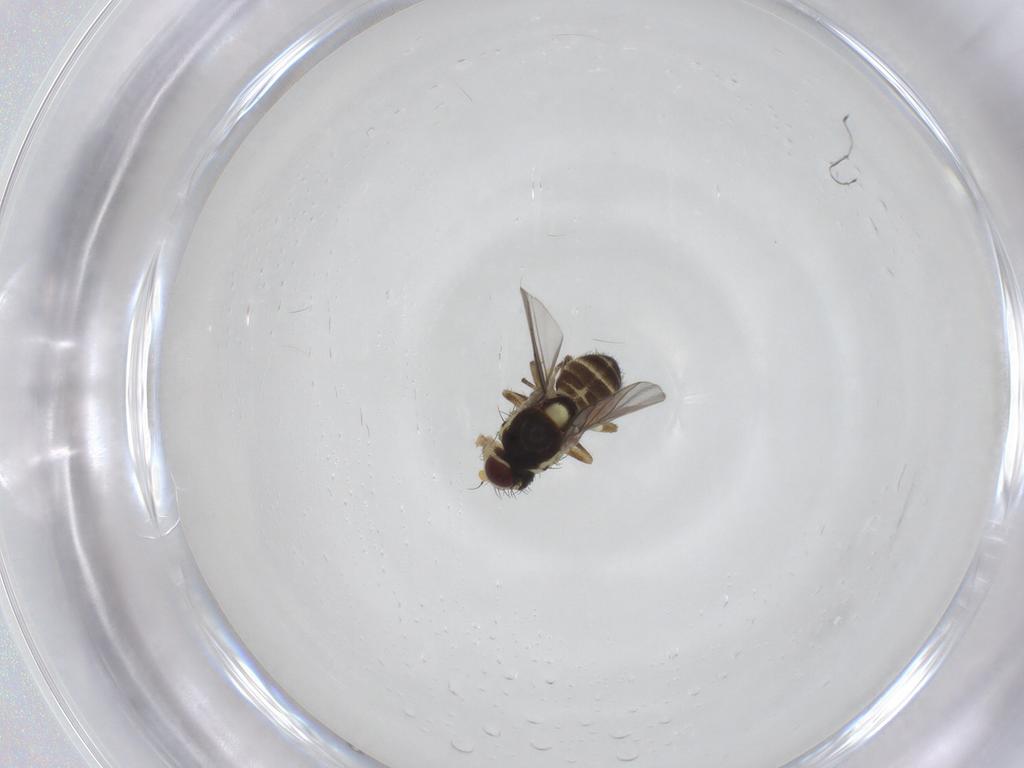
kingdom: Animalia
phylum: Arthropoda
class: Insecta
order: Diptera
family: Agromyzidae
